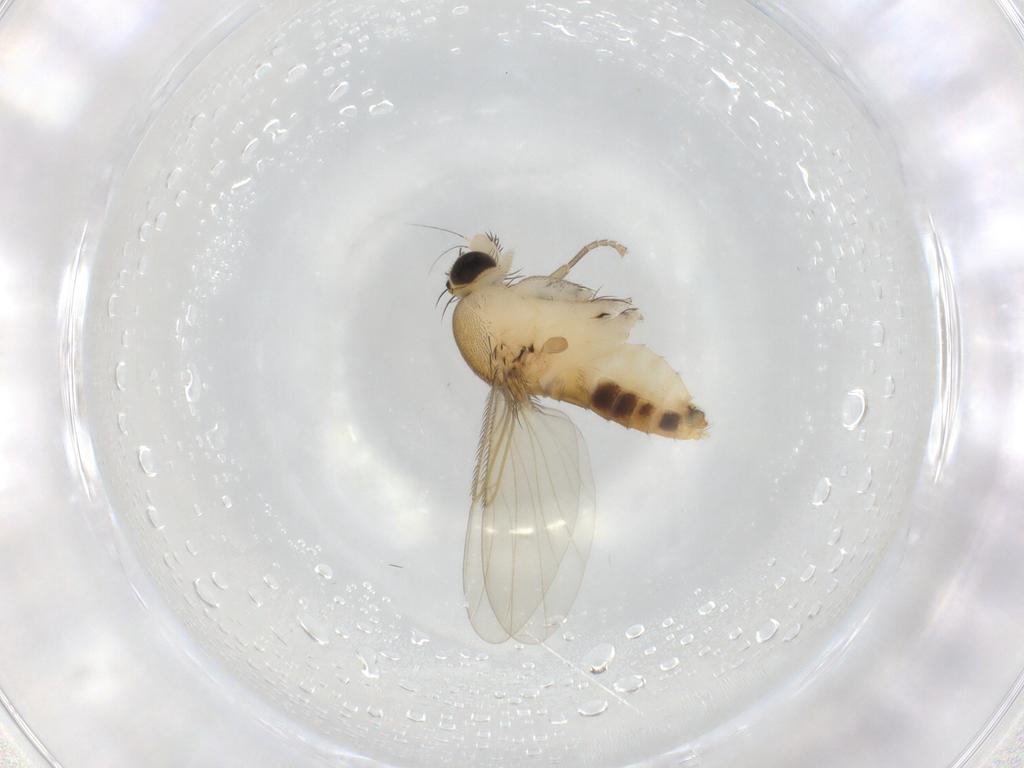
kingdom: Animalia
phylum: Arthropoda
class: Insecta
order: Diptera
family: Phoridae
